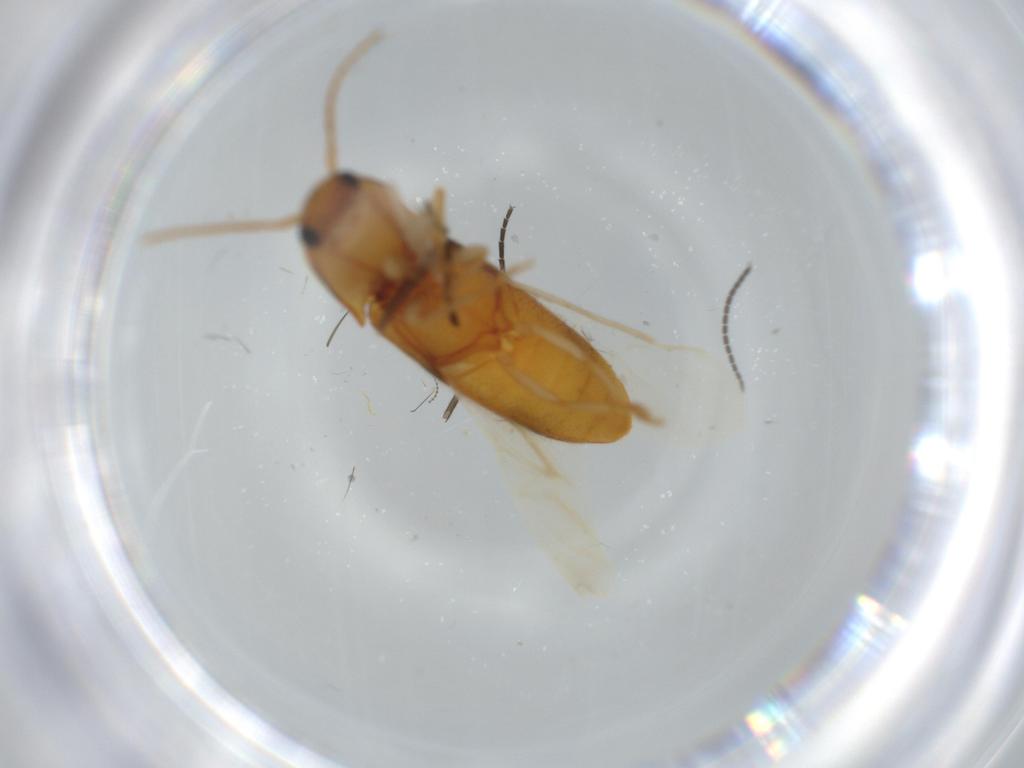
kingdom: Animalia
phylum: Arthropoda
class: Insecta
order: Coleoptera
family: Elateridae
